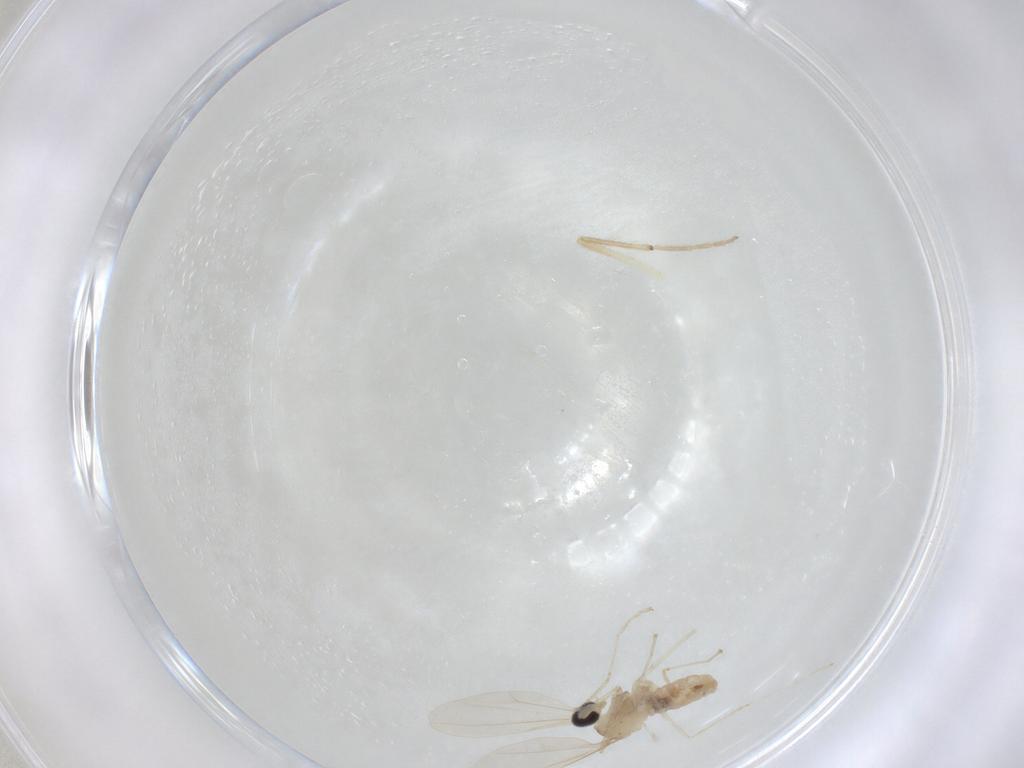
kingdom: Animalia
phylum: Arthropoda
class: Insecta
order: Diptera
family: Cecidomyiidae
